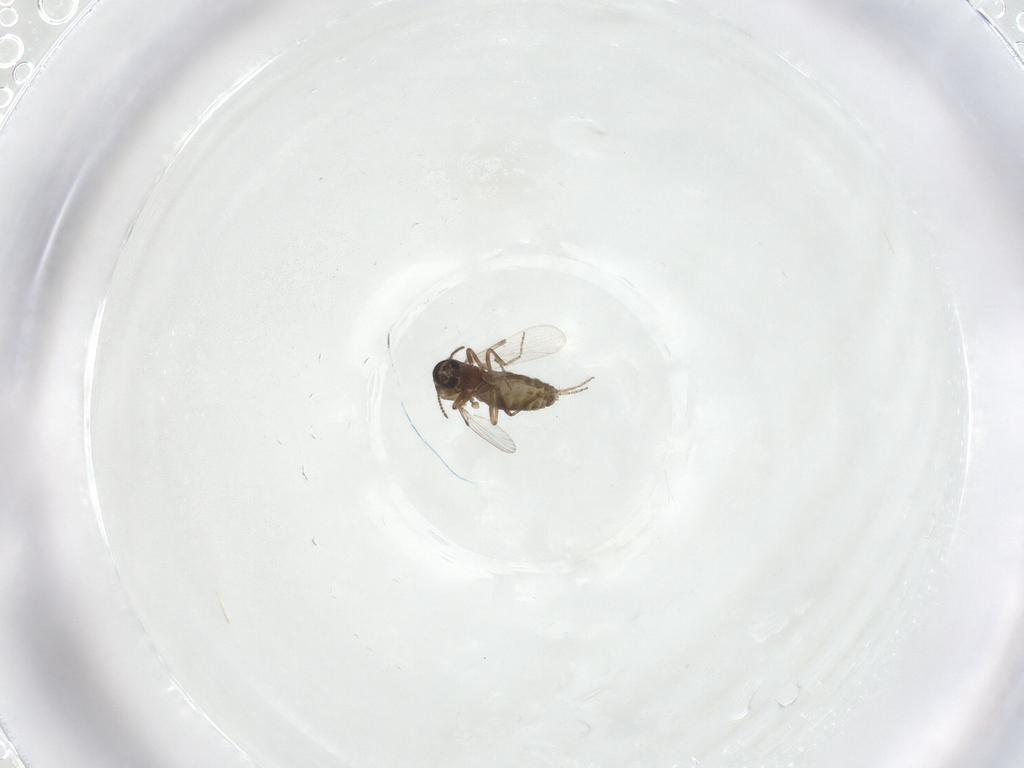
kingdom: Animalia
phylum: Arthropoda
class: Insecta
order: Diptera
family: Ceratopogonidae
